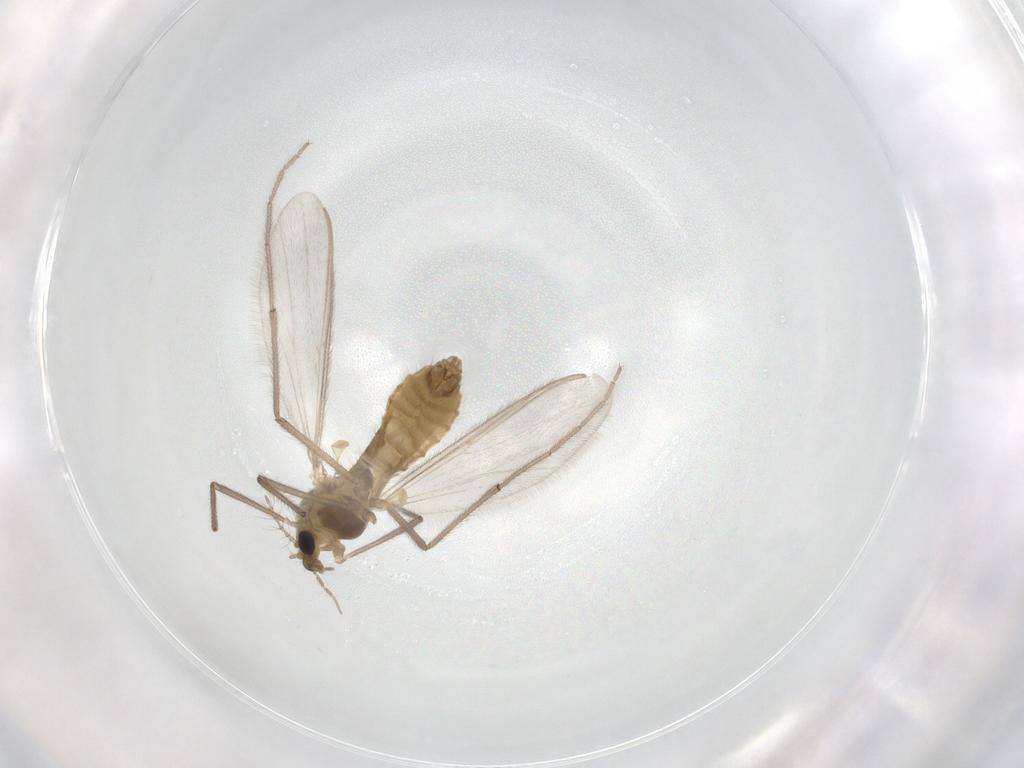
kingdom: Animalia
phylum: Arthropoda
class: Insecta
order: Diptera
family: Chironomidae
